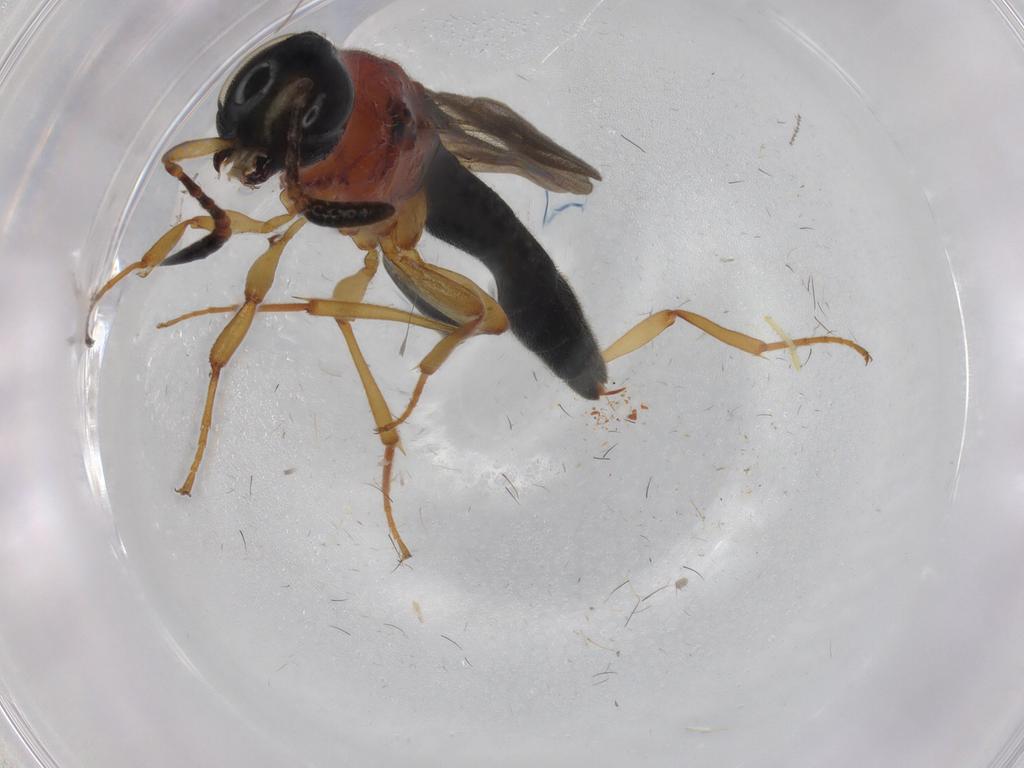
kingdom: Animalia
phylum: Arthropoda
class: Insecta
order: Hymenoptera
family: Scelionidae
